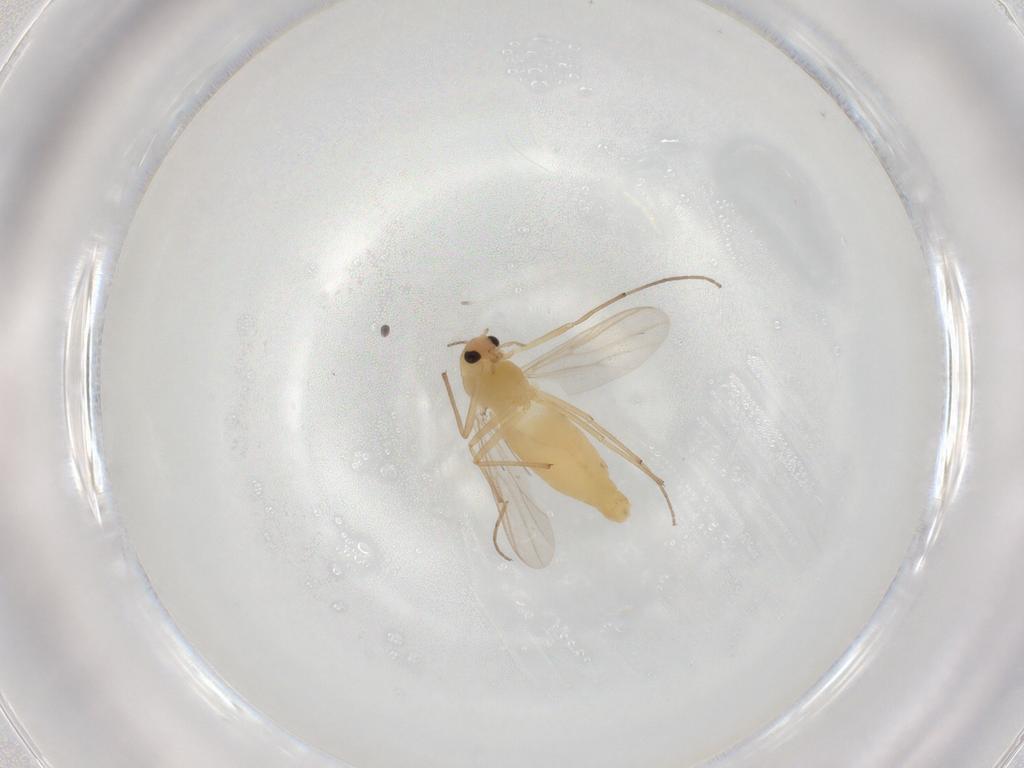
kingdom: Animalia
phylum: Arthropoda
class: Insecta
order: Diptera
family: Chironomidae
